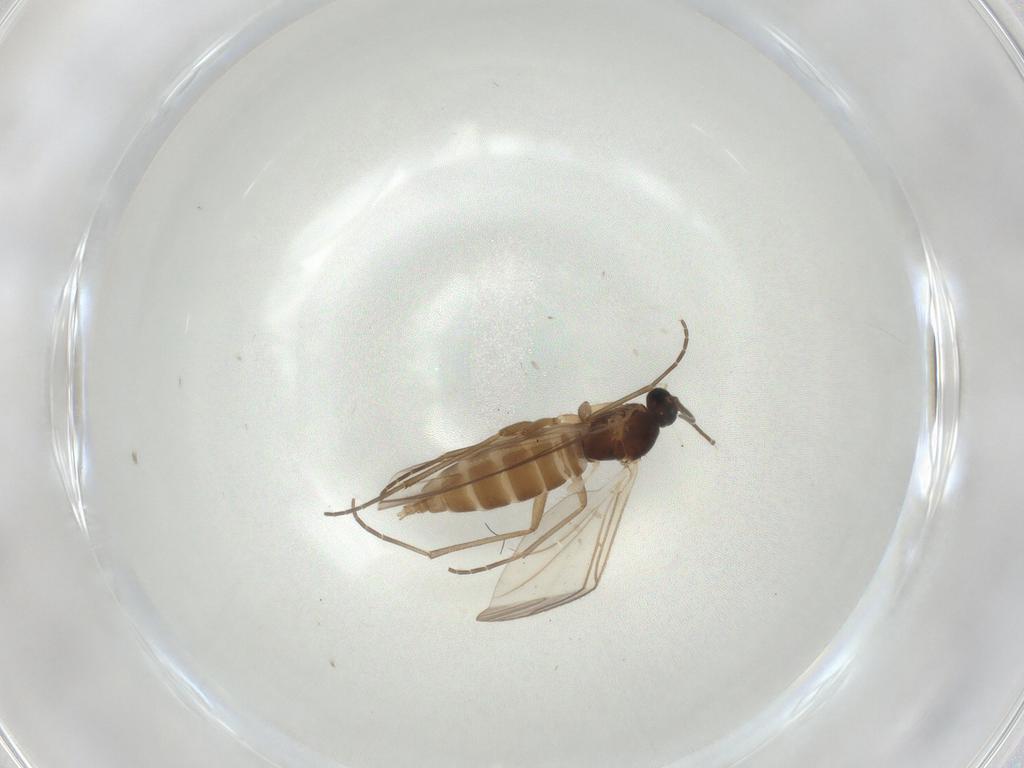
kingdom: Animalia
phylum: Arthropoda
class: Insecta
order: Diptera
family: Sciaridae
